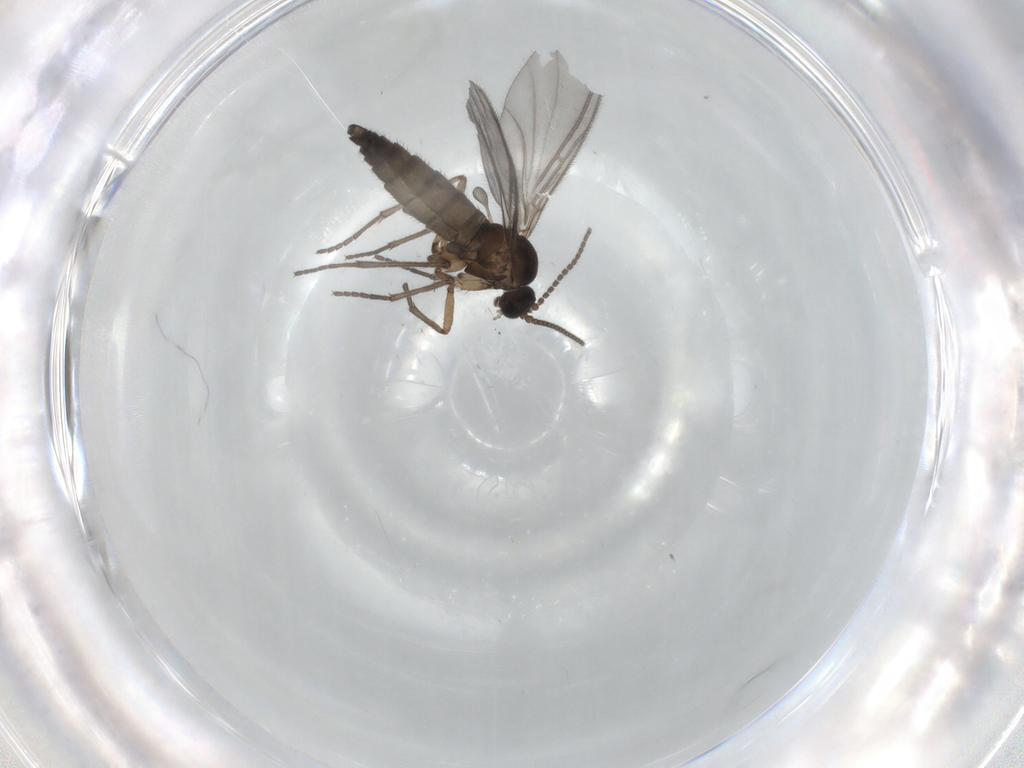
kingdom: Animalia
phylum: Arthropoda
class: Insecta
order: Diptera
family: Sciaridae
